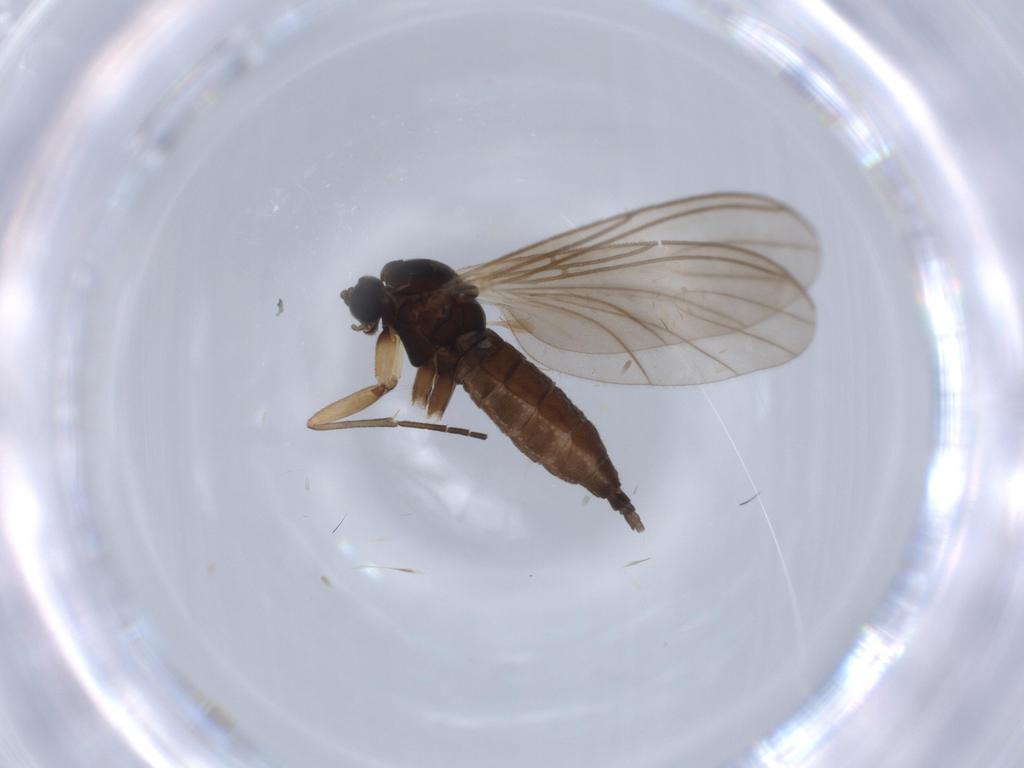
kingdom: Animalia
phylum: Arthropoda
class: Insecta
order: Diptera
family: Sciaridae
